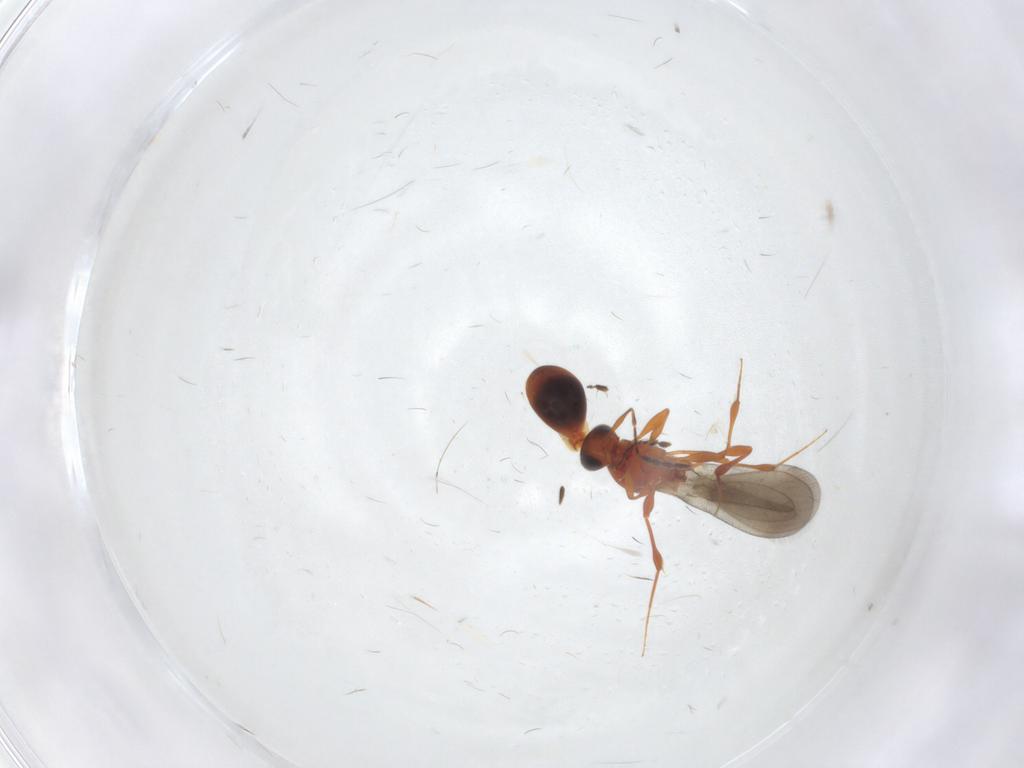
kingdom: Animalia
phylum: Arthropoda
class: Insecta
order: Hymenoptera
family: Platygastridae
